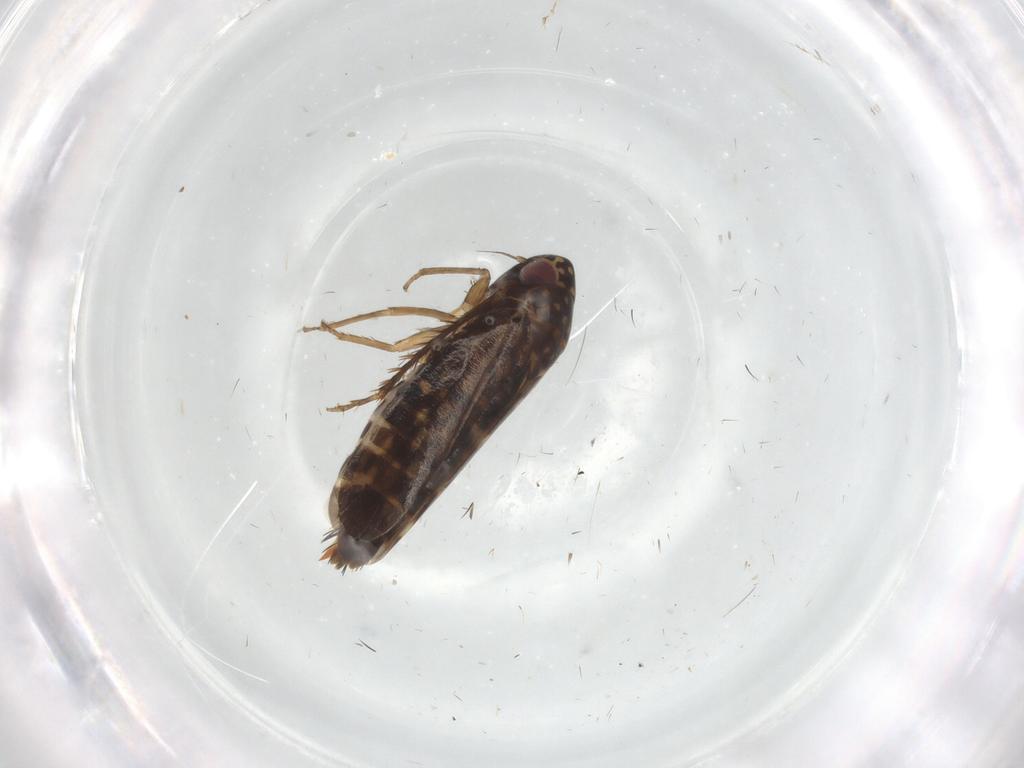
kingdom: Animalia
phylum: Arthropoda
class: Insecta
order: Hemiptera
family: Cicadellidae
